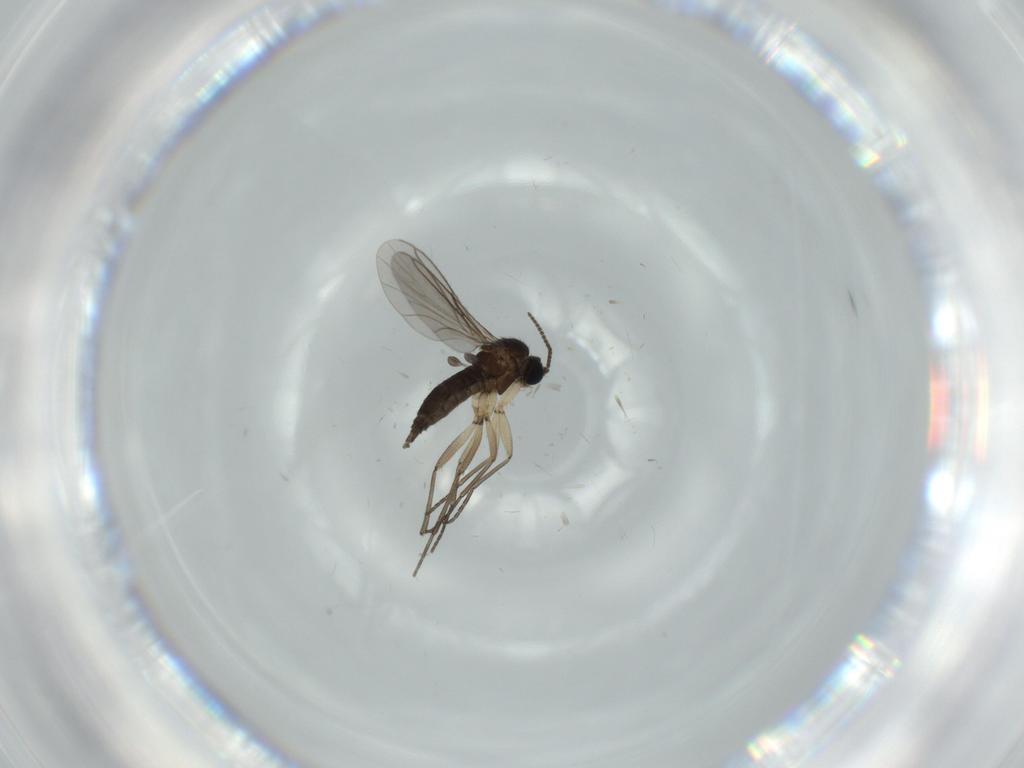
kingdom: Animalia
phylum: Arthropoda
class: Insecta
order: Diptera
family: Sciaridae
